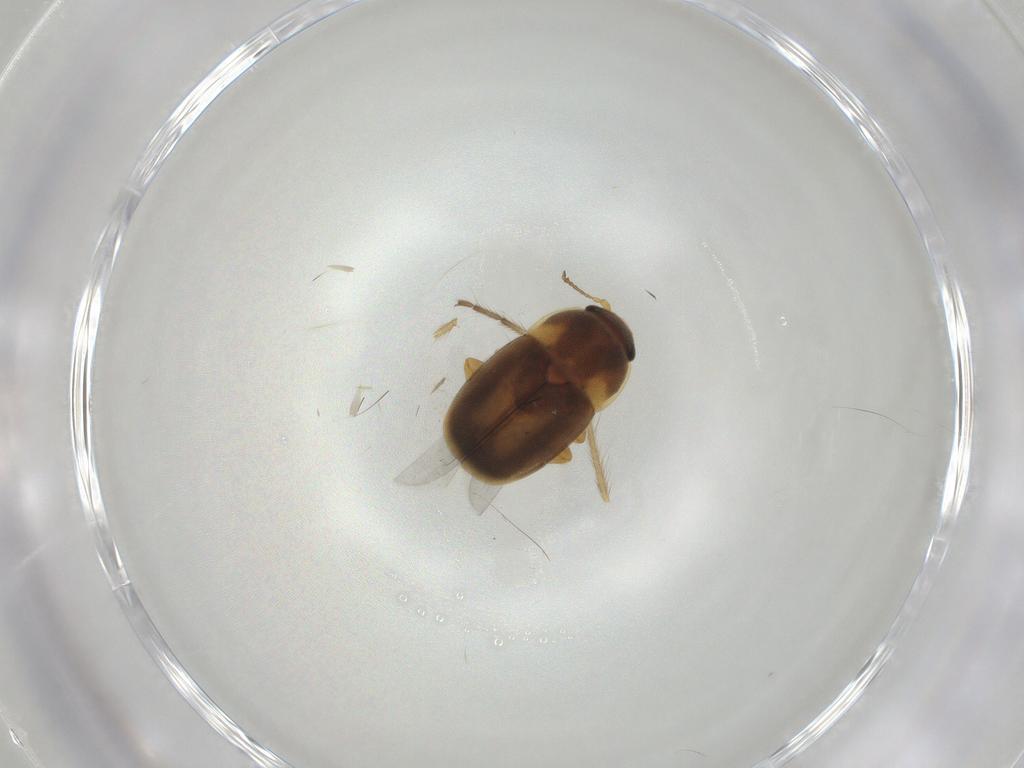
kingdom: Animalia
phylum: Arthropoda
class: Insecta
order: Coleoptera
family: Nitidulidae
